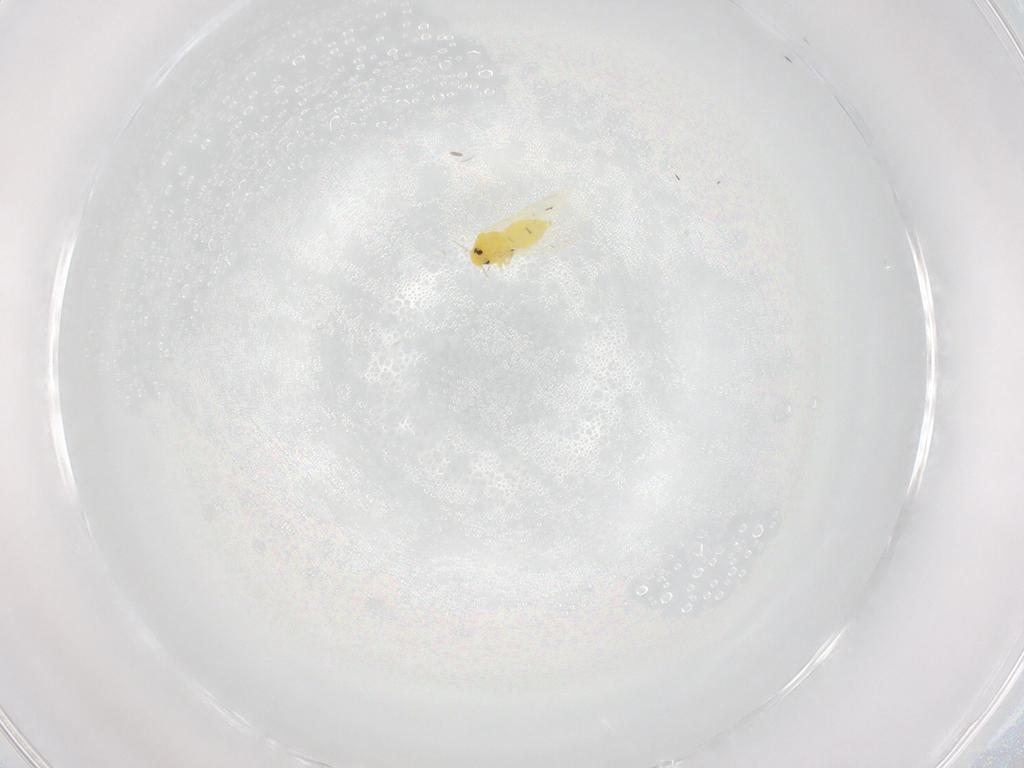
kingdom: Animalia
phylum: Arthropoda
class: Insecta
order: Hemiptera
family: Aleyrodidae
